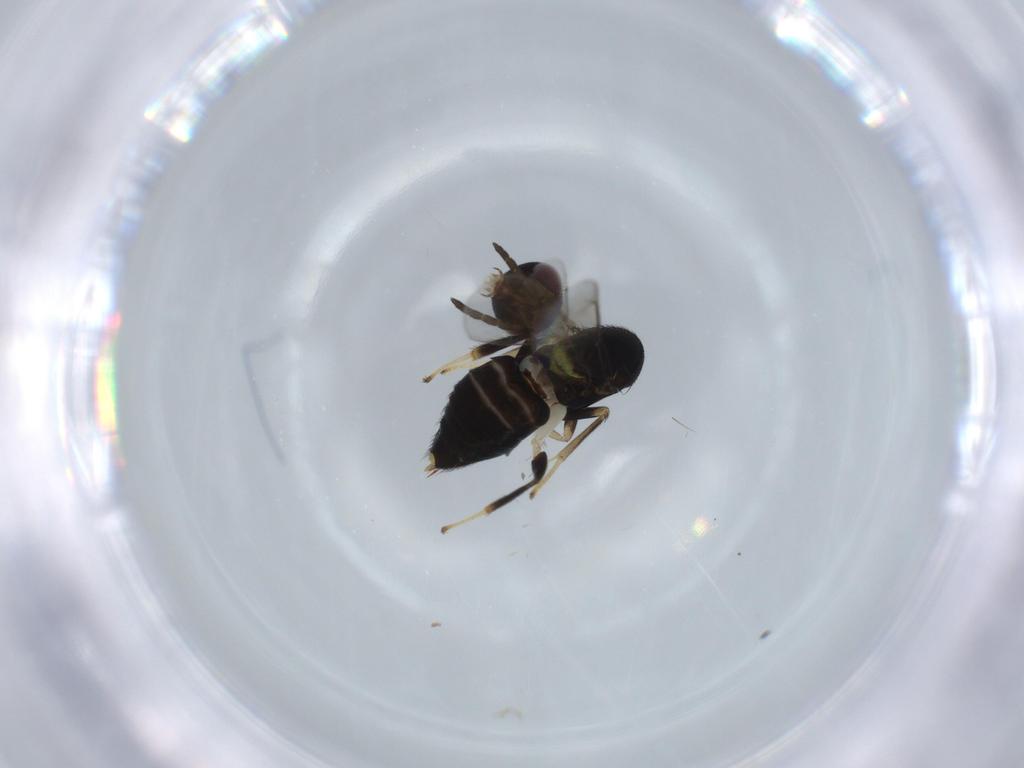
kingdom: Animalia
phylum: Arthropoda
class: Insecta
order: Hymenoptera
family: Aphelinidae
